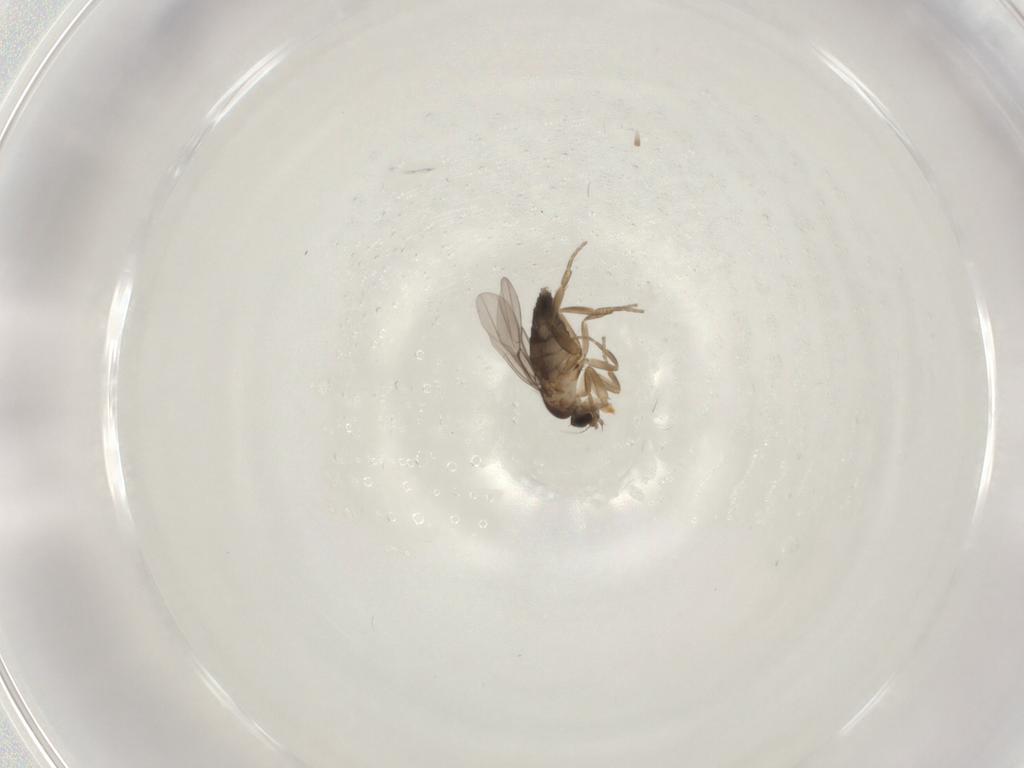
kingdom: Animalia
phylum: Arthropoda
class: Insecta
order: Diptera
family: Phoridae
